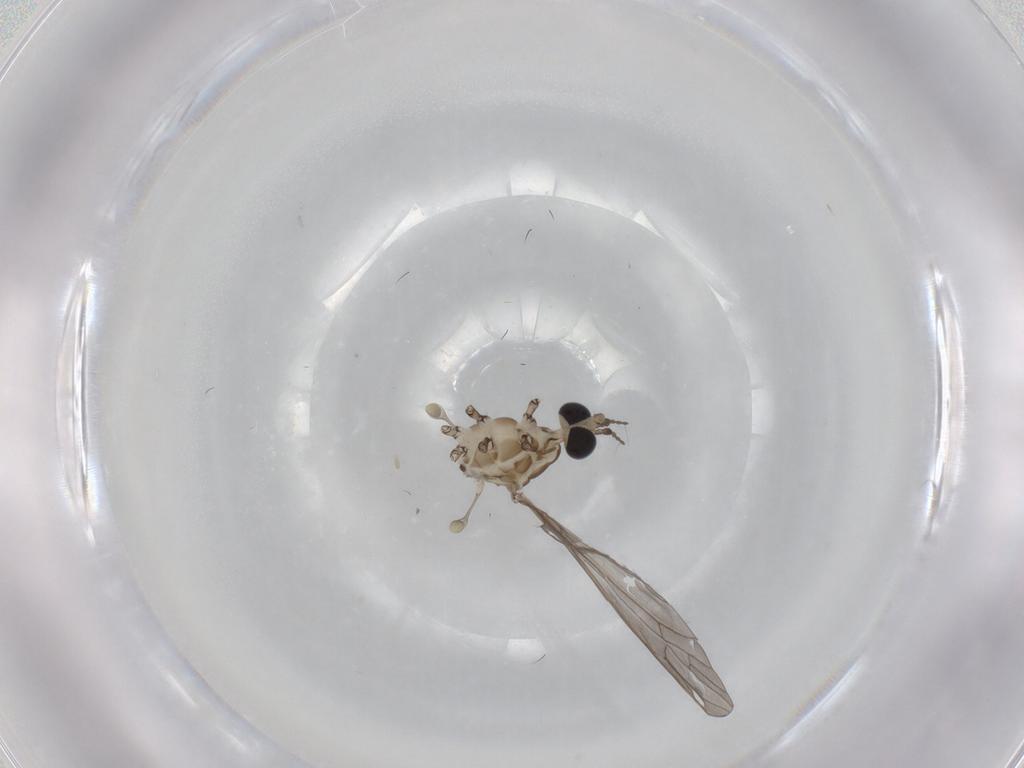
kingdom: Animalia
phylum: Arthropoda
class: Insecta
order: Diptera
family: Limoniidae
